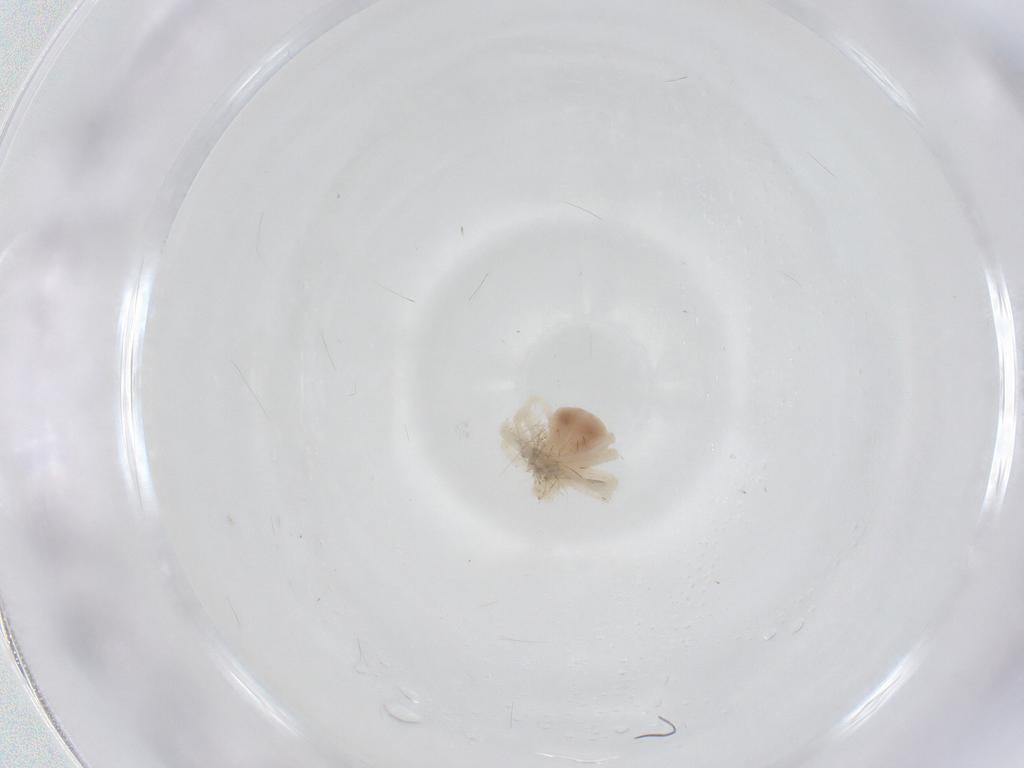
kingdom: Animalia
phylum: Arthropoda
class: Arachnida
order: Trombidiformes
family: Anystidae
